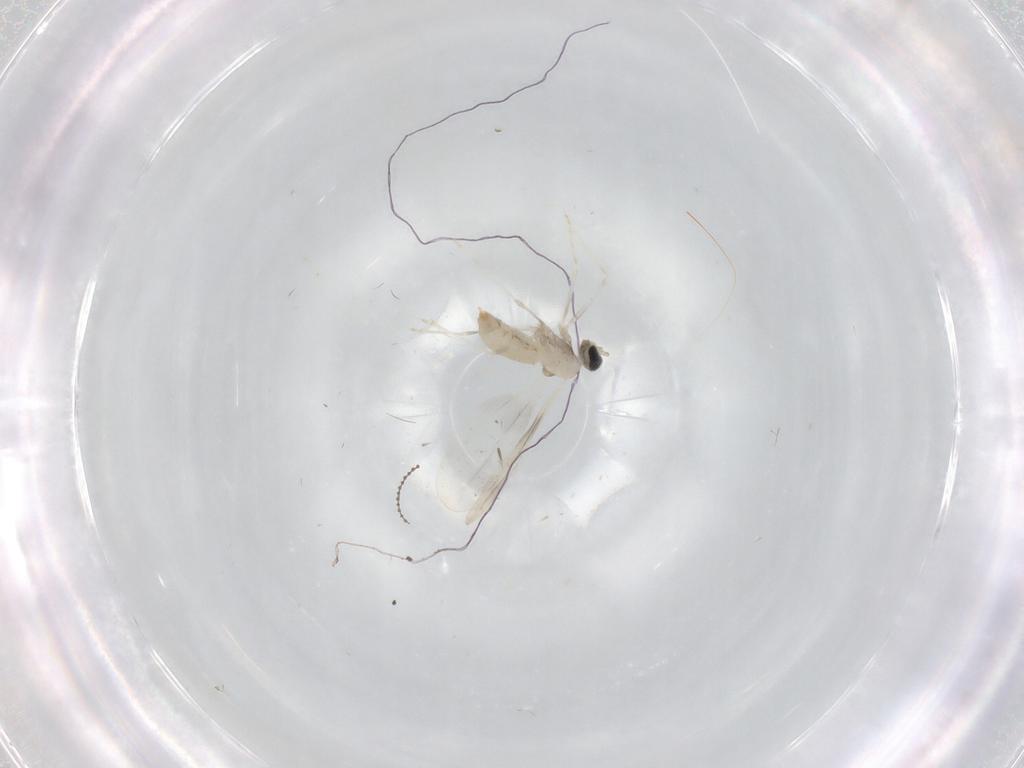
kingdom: Animalia
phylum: Arthropoda
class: Insecta
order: Diptera
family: Cecidomyiidae
